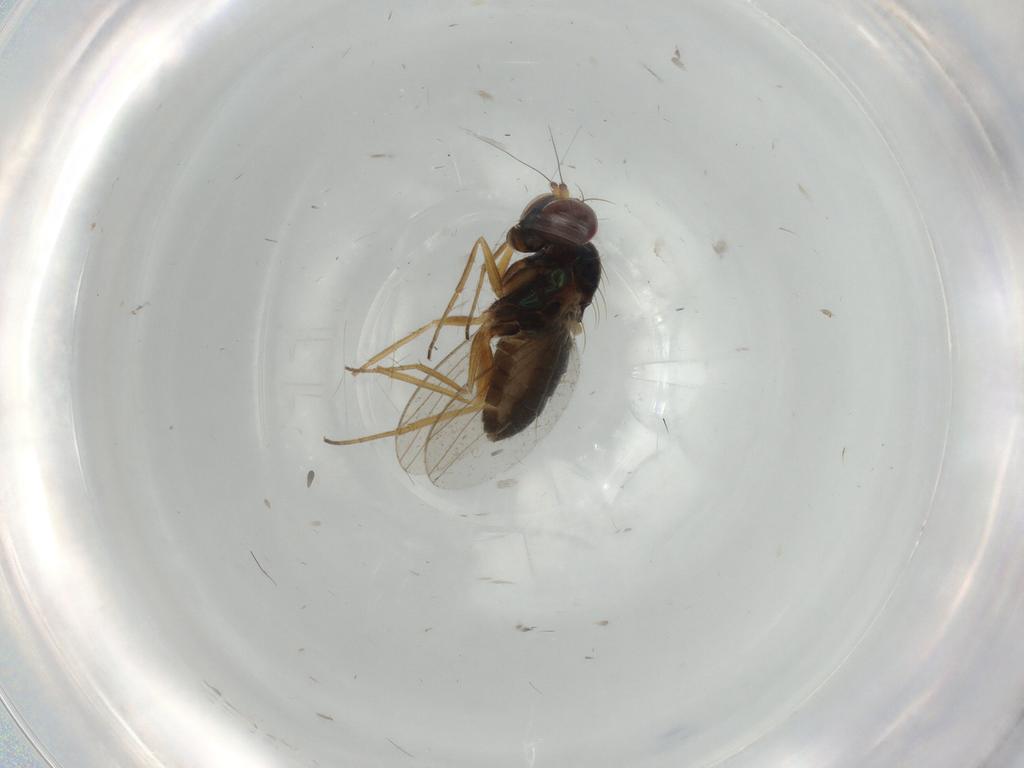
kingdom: Animalia
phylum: Arthropoda
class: Insecta
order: Diptera
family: Dolichopodidae
